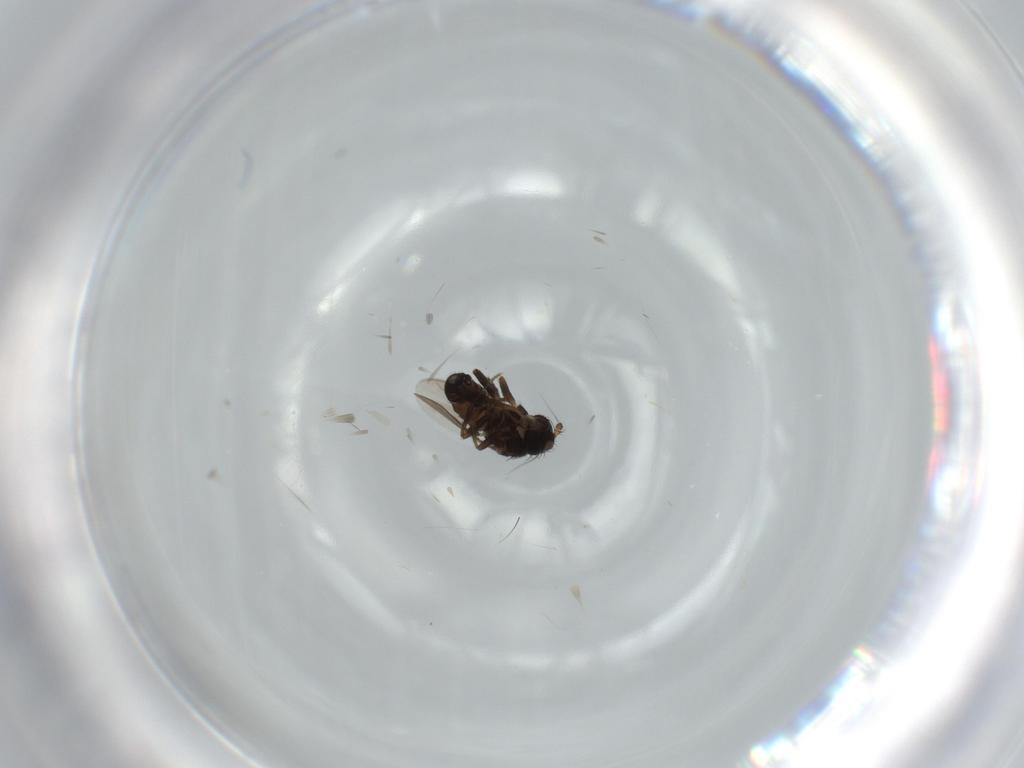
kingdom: Animalia
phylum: Arthropoda
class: Insecta
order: Diptera
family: Sphaeroceridae
